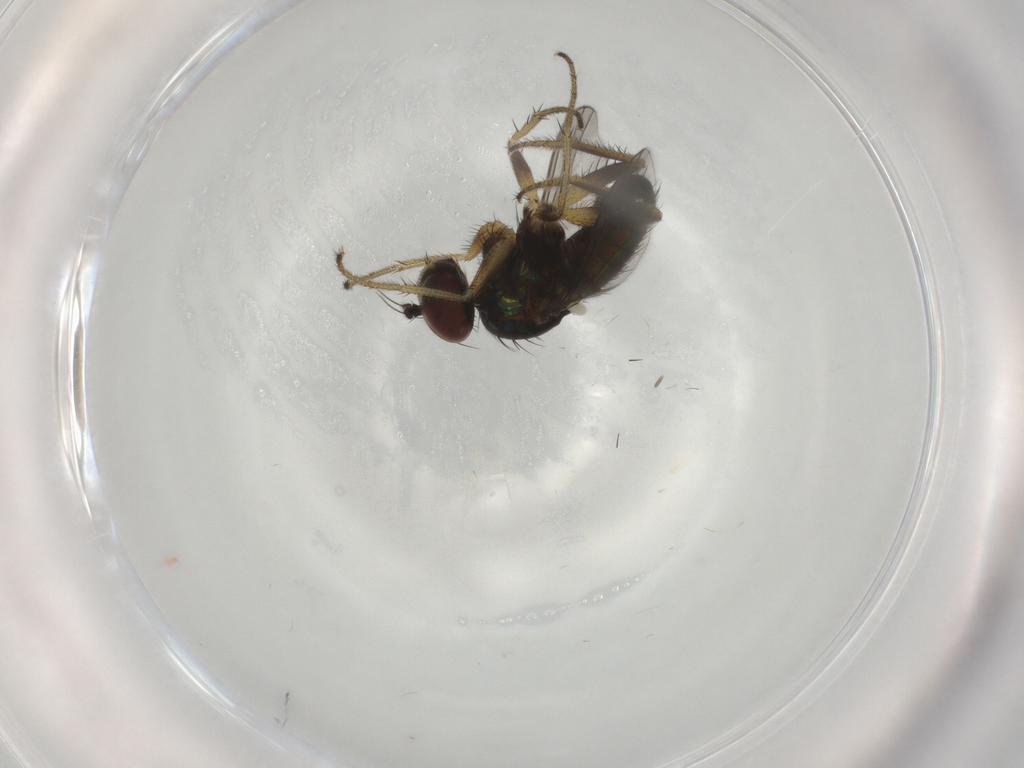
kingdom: Animalia
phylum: Arthropoda
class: Insecta
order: Diptera
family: Dolichopodidae
